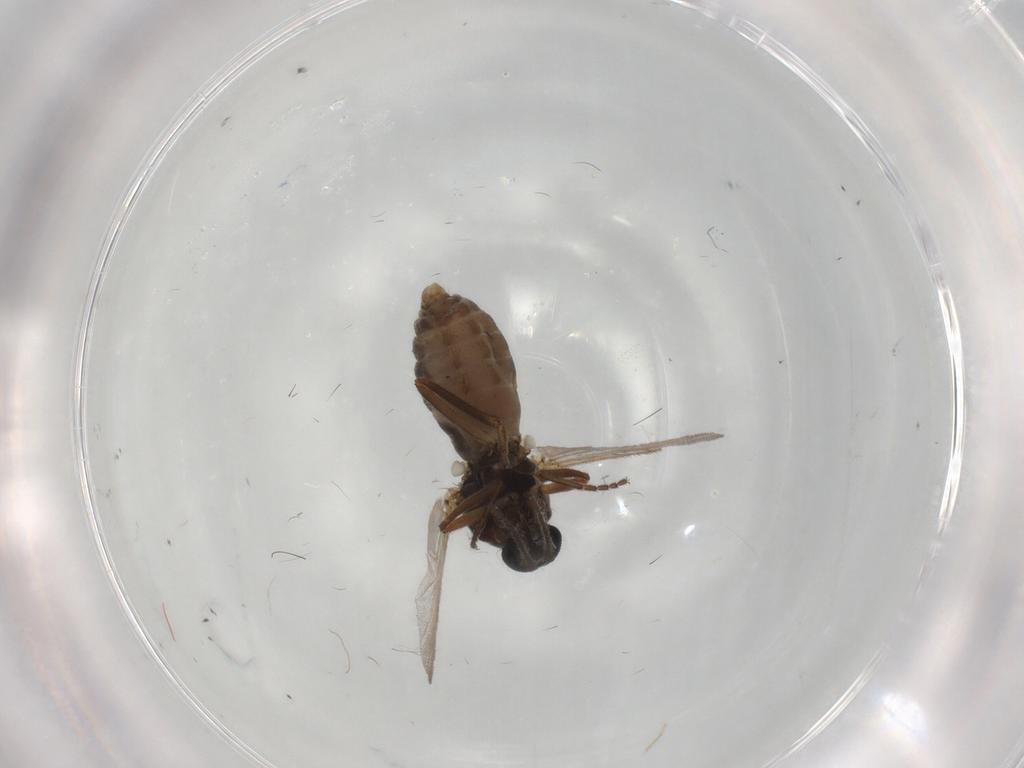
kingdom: Animalia
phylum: Arthropoda
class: Insecta
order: Diptera
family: Ceratopogonidae
